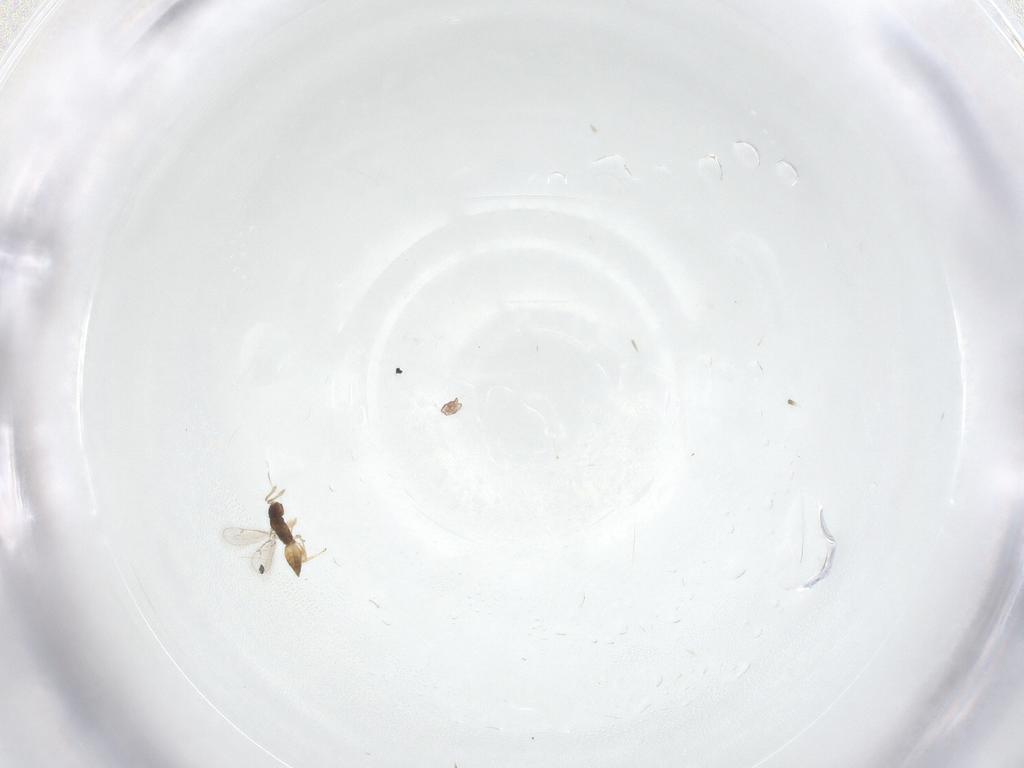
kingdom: Animalia
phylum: Arthropoda
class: Insecta
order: Hymenoptera
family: Eulophidae
